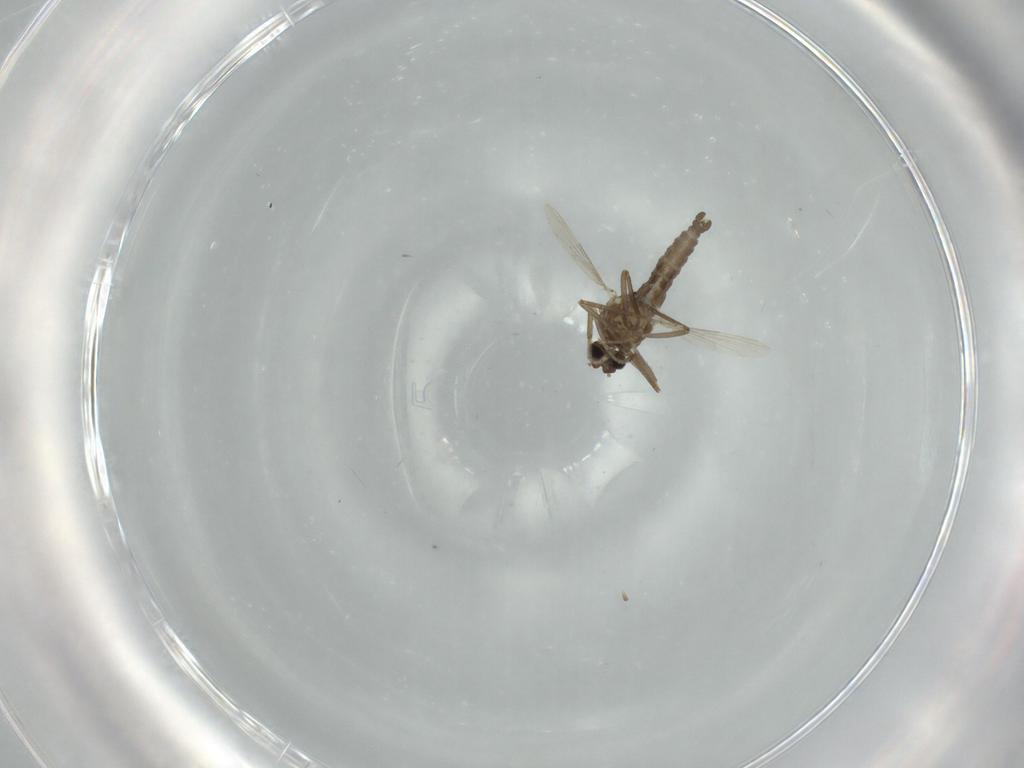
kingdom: Animalia
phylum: Arthropoda
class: Insecta
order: Diptera
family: Ceratopogonidae
